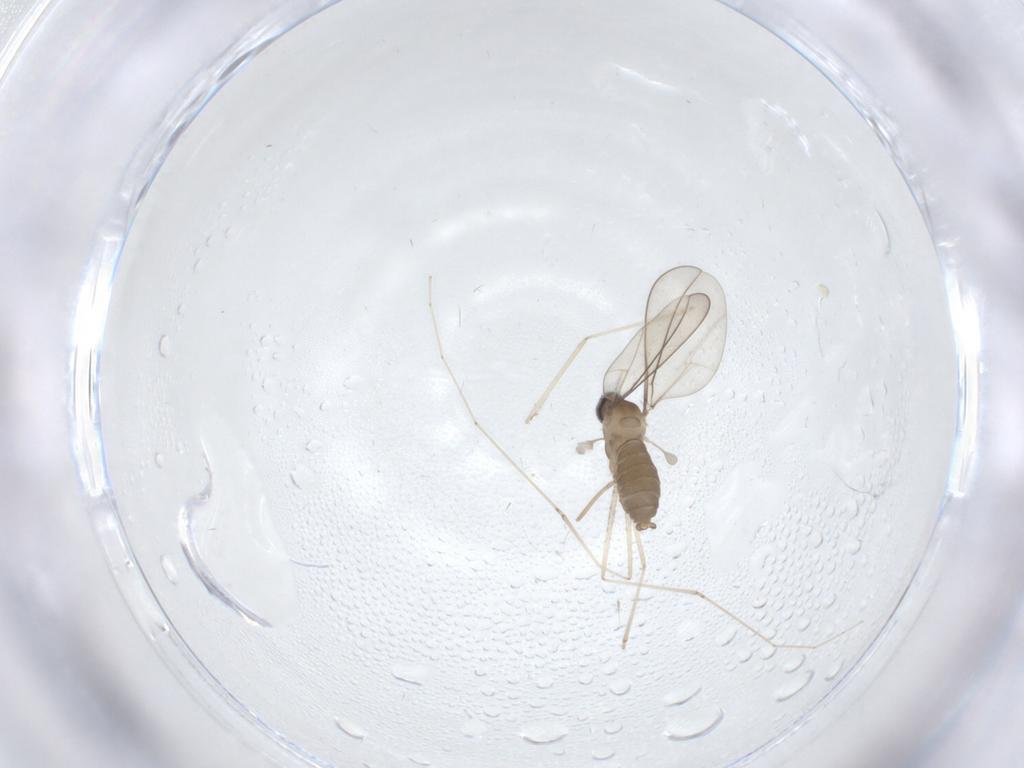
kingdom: Animalia
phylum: Arthropoda
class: Insecta
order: Diptera
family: Cecidomyiidae
